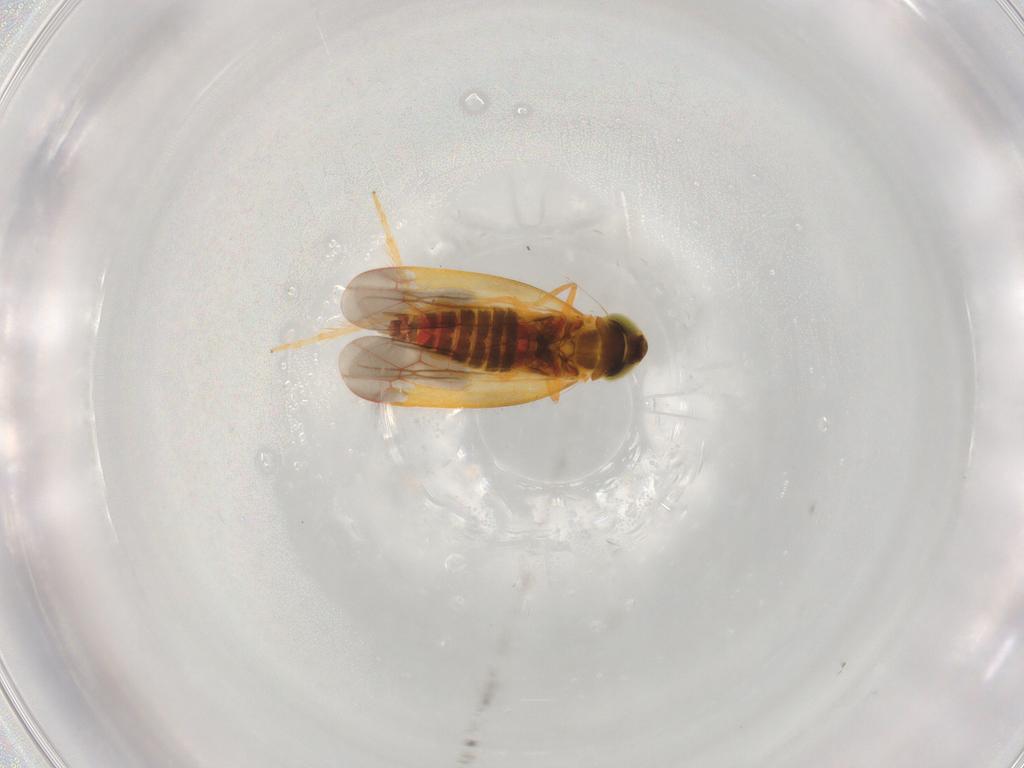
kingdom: Animalia
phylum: Arthropoda
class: Insecta
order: Hemiptera
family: Cicadellidae
